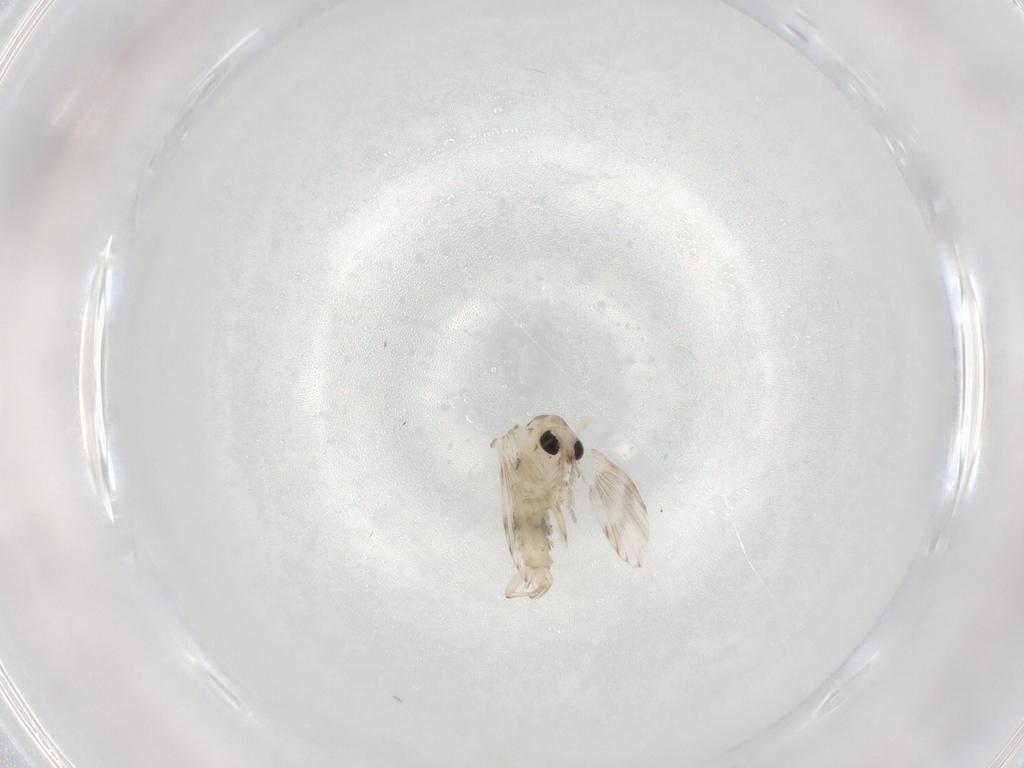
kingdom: Animalia
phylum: Arthropoda
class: Insecta
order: Diptera
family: Psychodidae
